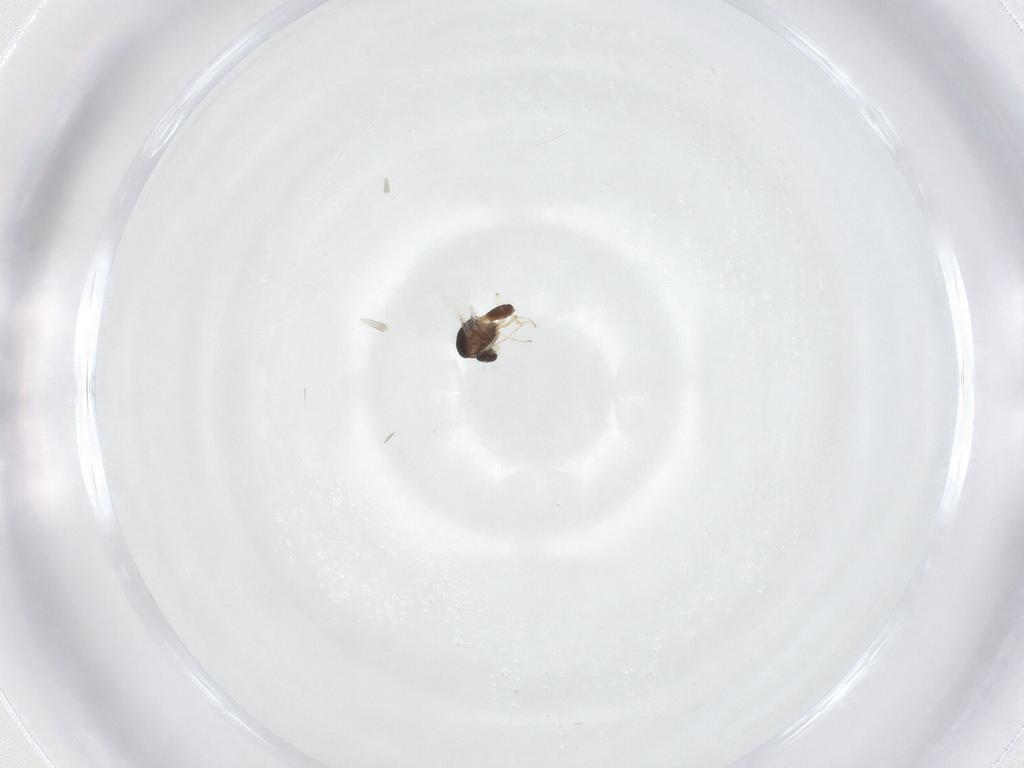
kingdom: Animalia
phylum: Arthropoda
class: Insecta
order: Diptera
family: Chironomidae
